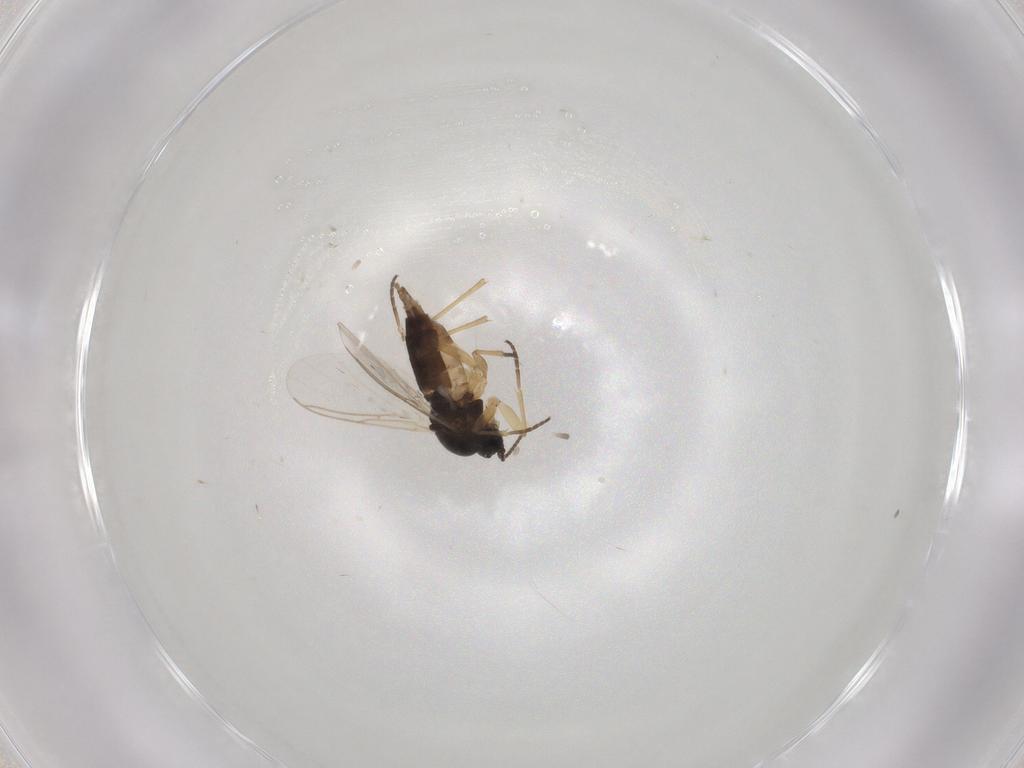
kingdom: Animalia
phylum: Arthropoda
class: Insecta
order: Diptera
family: Sciaridae
